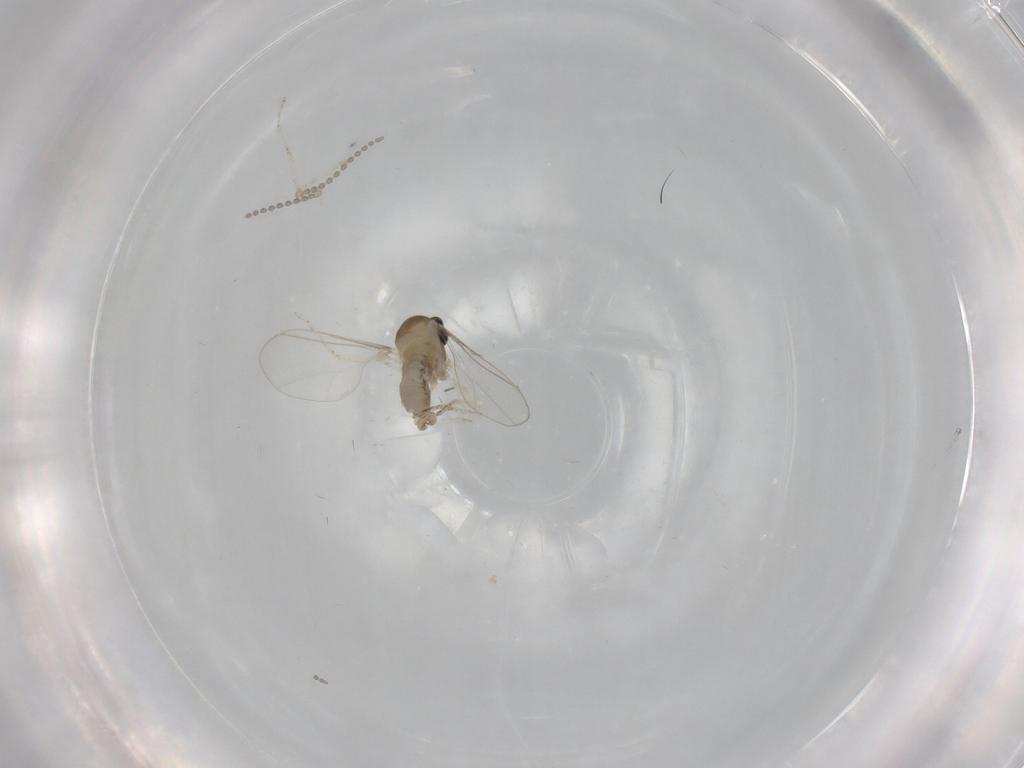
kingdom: Animalia
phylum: Arthropoda
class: Insecta
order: Diptera
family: Cecidomyiidae
